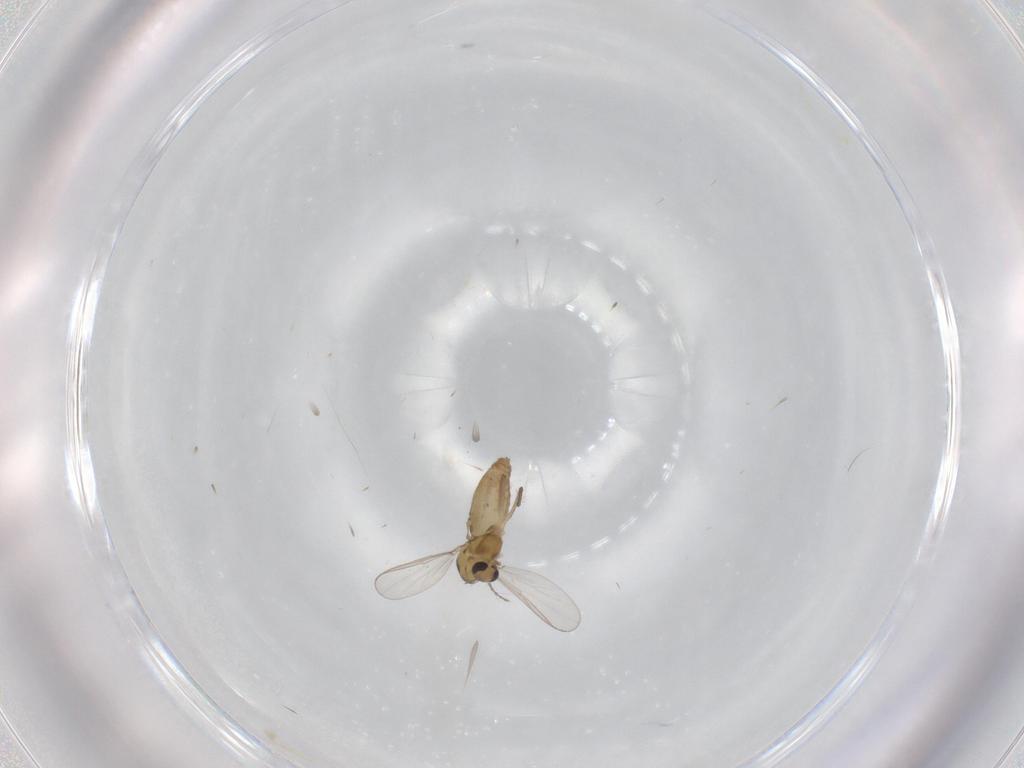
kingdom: Animalia
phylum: Arthropoda
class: Insecta
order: Diptera
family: Chironomidae
